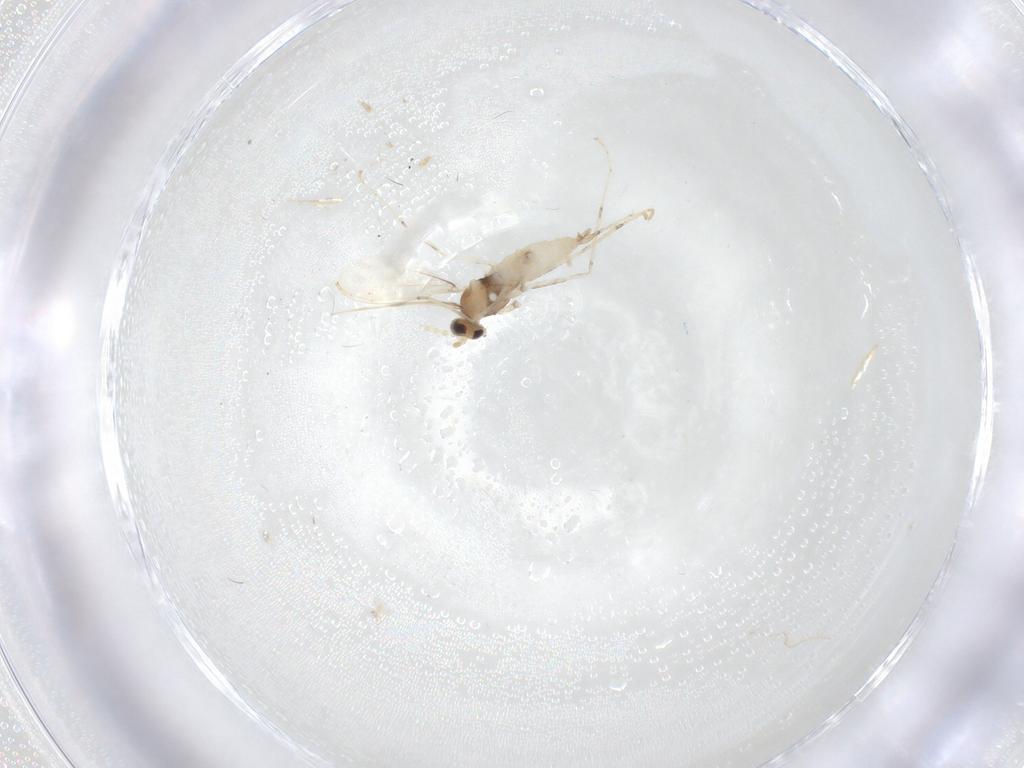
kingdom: Animalia
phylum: Arthropoda
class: Insecta
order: Diptera
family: Cecidomyiidae
